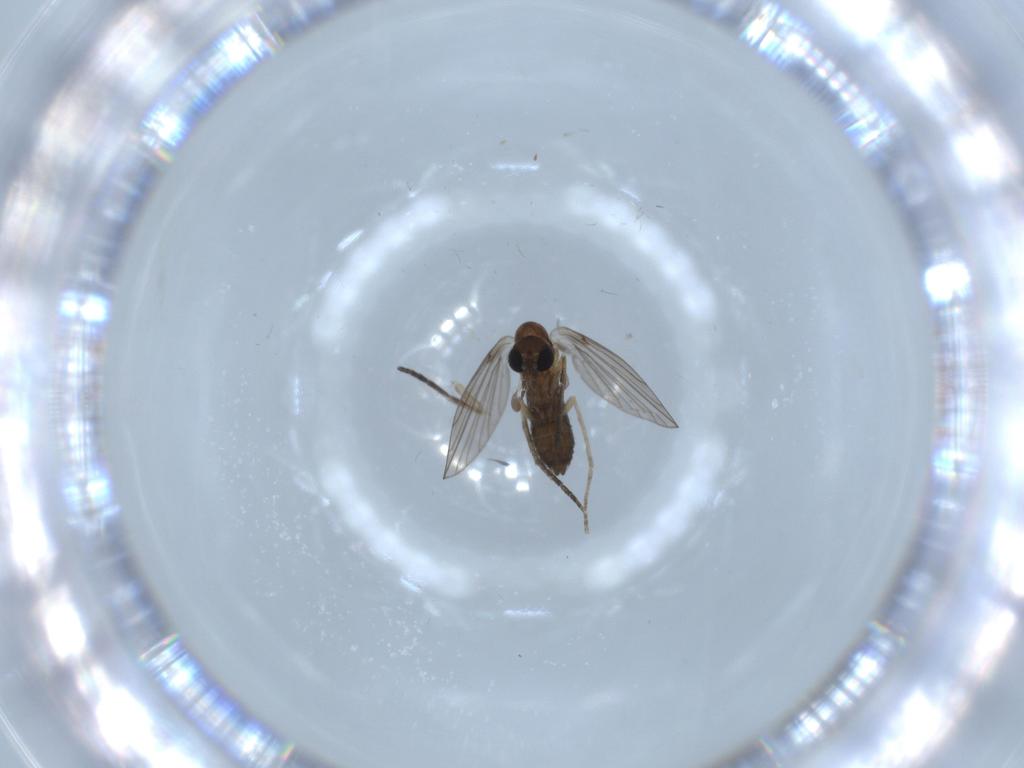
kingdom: Animalia
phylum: Arthropoda
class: Insecta
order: Diptera
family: Psychodidae
